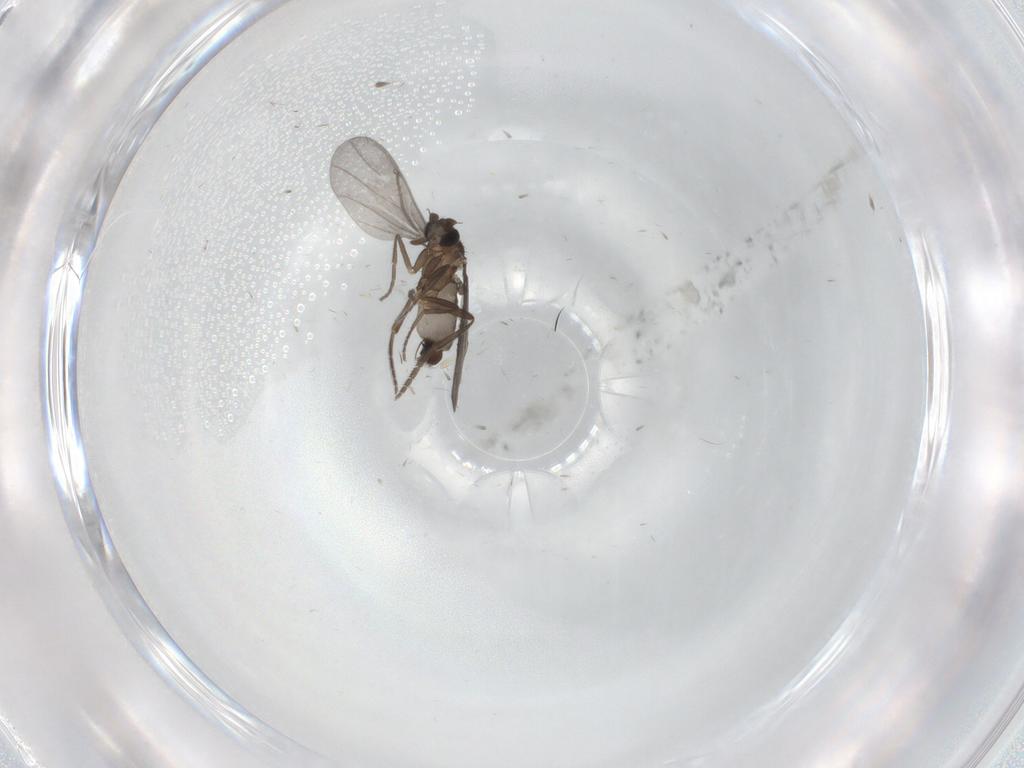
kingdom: Animalia
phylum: Arthropoda
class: Insecta
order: Diptera
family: Phoridae
